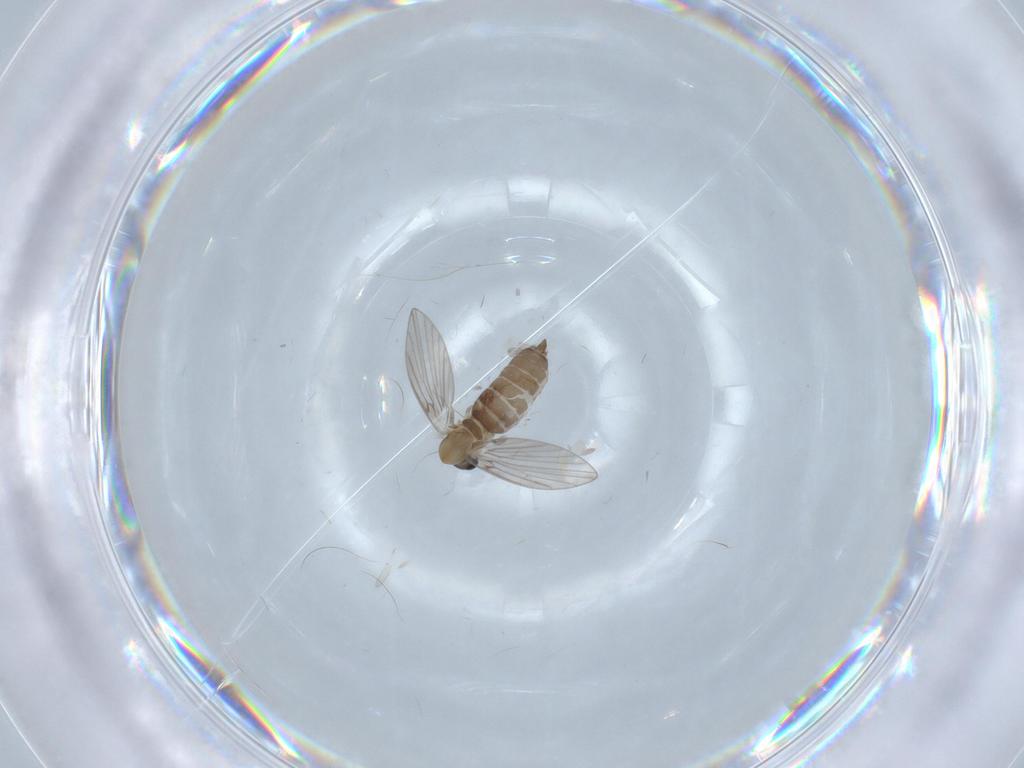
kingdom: Animalia
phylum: Arthropoda
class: Insecta
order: Diptera
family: Psychodidae
